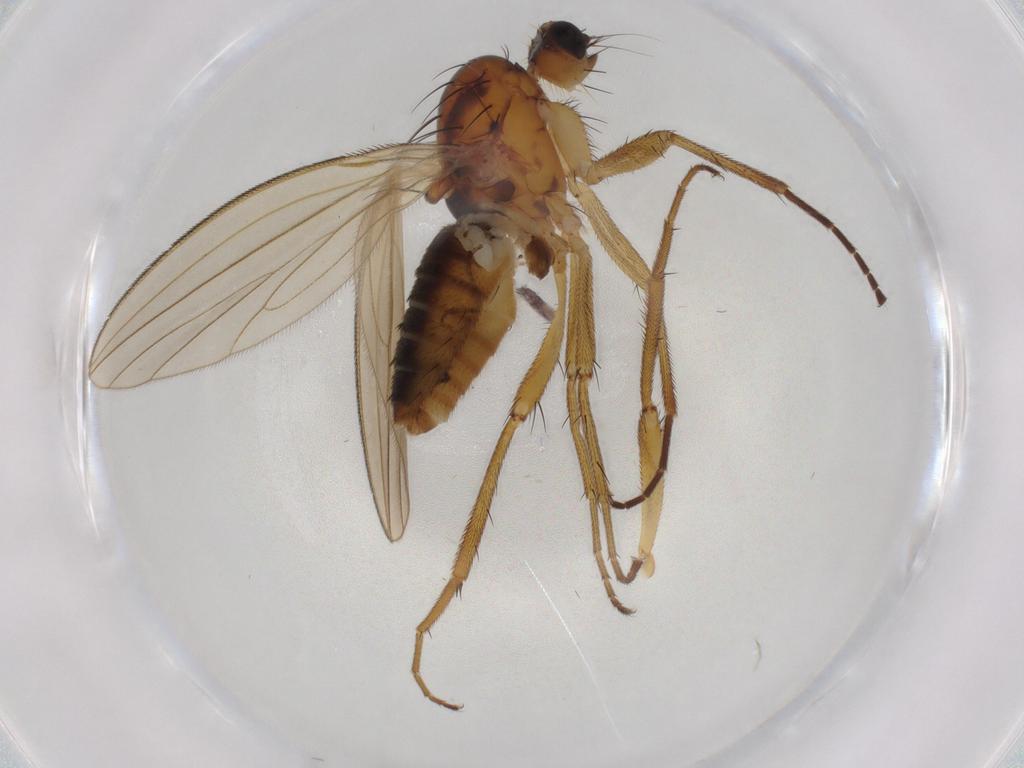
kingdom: Animalia
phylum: Arthropoda
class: Insecta
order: Diptera
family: Lonchopteridae
